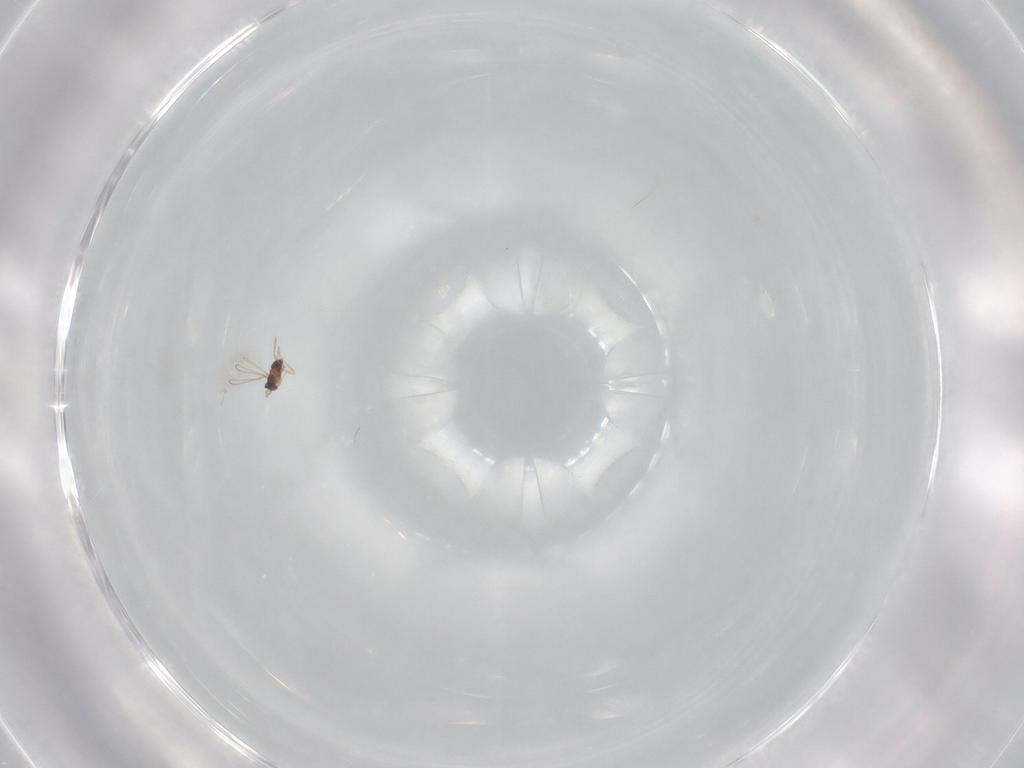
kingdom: Animalia
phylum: Arthropoda
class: Insecta
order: Hymenoptera
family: Mymaridae
